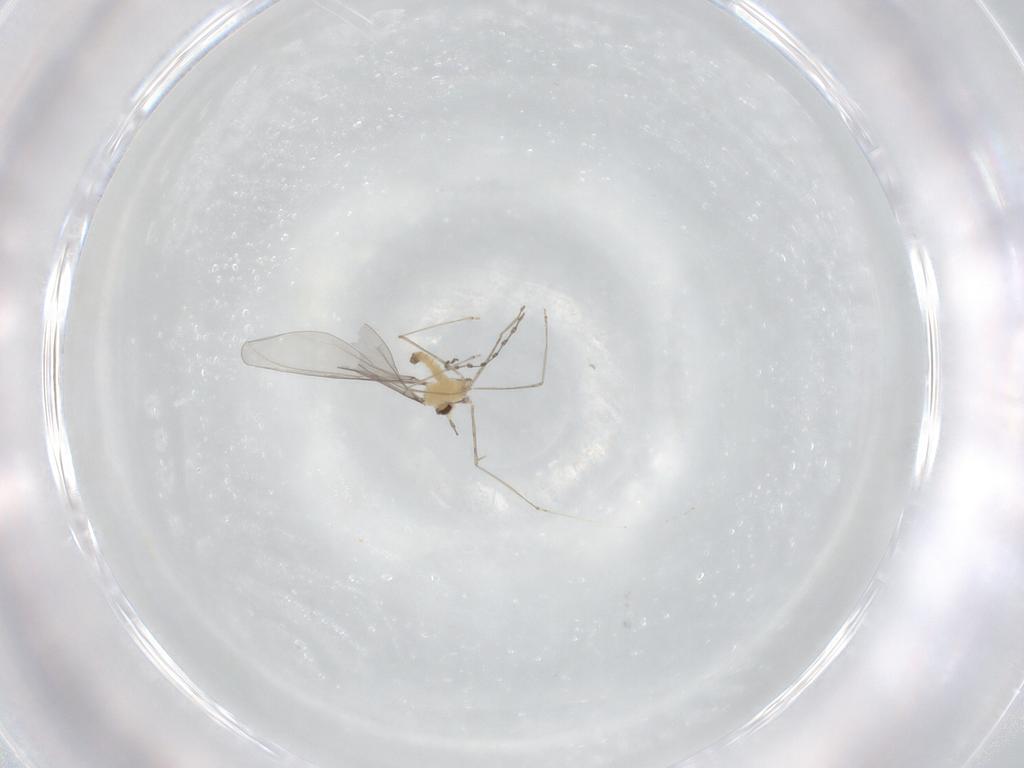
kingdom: Animalia
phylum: Arthropoda
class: Insecta
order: Diptera
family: Cecidomyiidae
